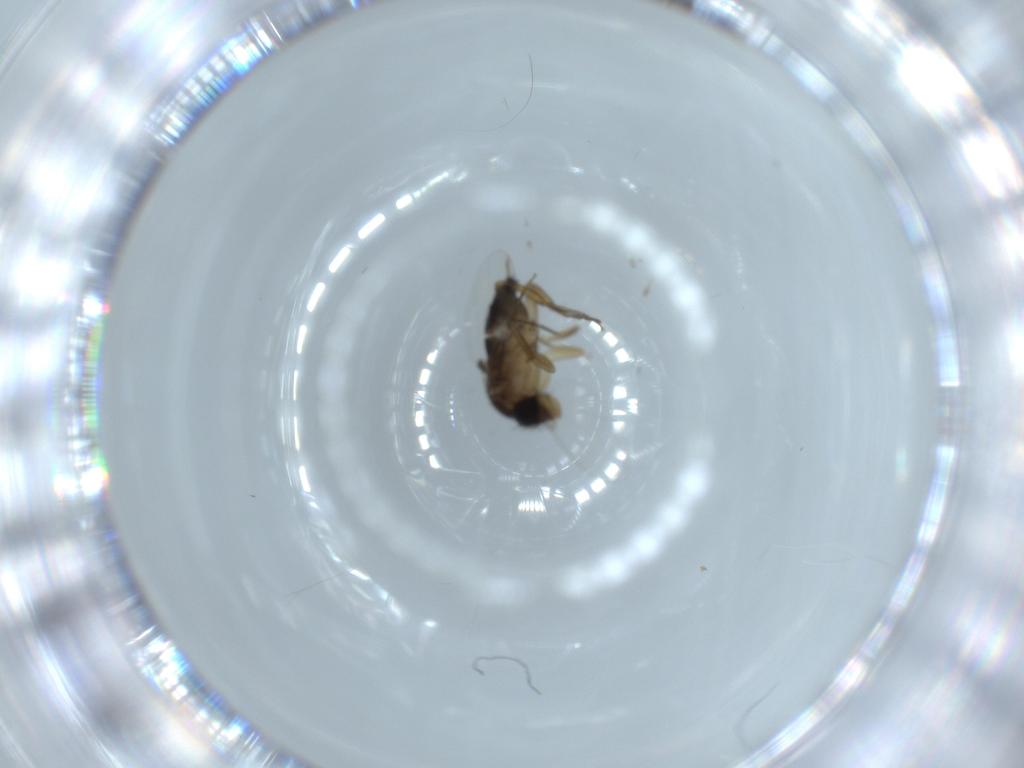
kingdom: Animalia
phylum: Arthropoda
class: Insecta
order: Diptera
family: Phoridae
